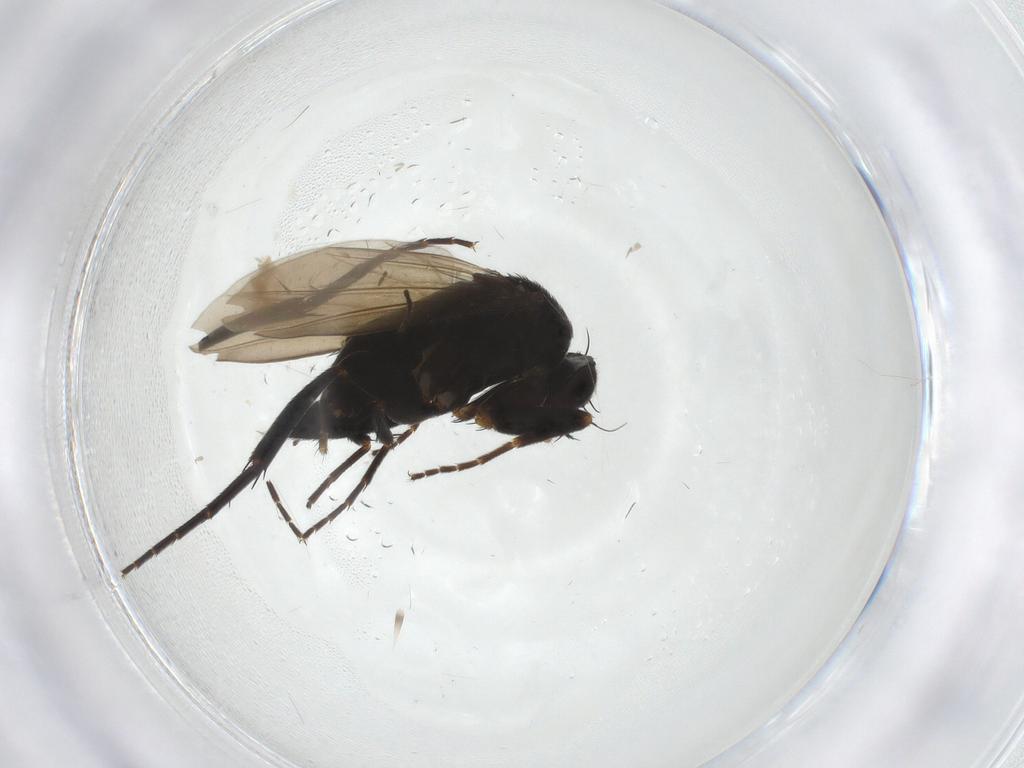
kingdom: Animalia
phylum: Arthropoda
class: Insecta
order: Diptera
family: Phoridae
